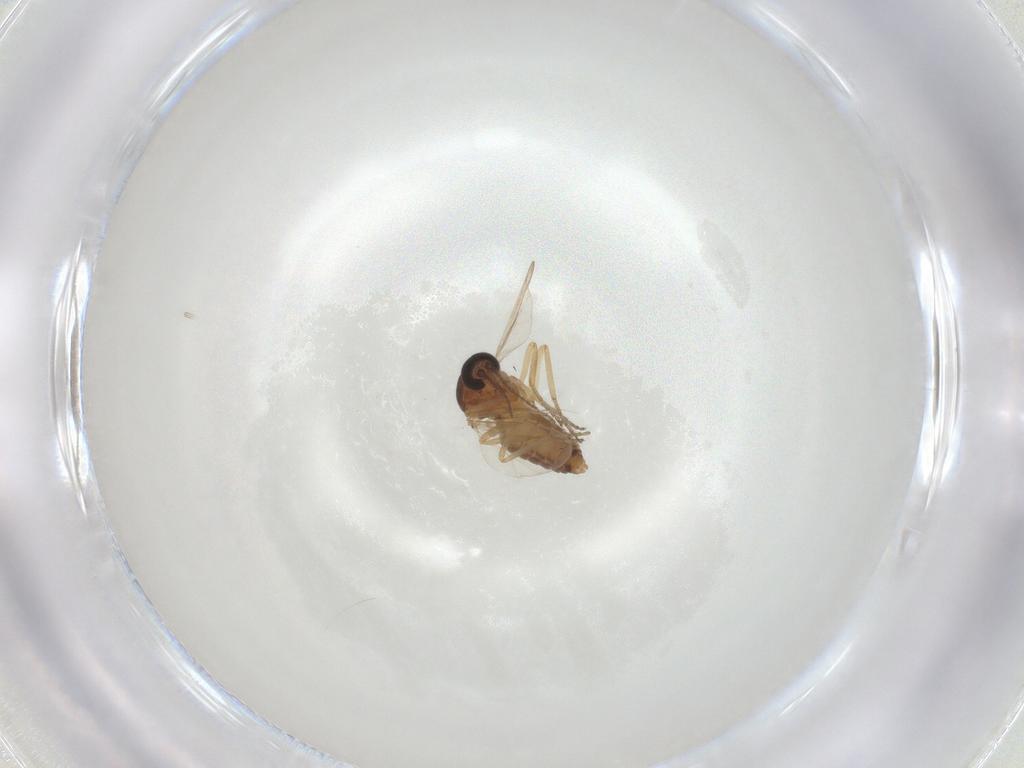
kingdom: Animalia
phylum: Arthropoda
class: Insecta
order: Diptera
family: Ceratopogonidae
